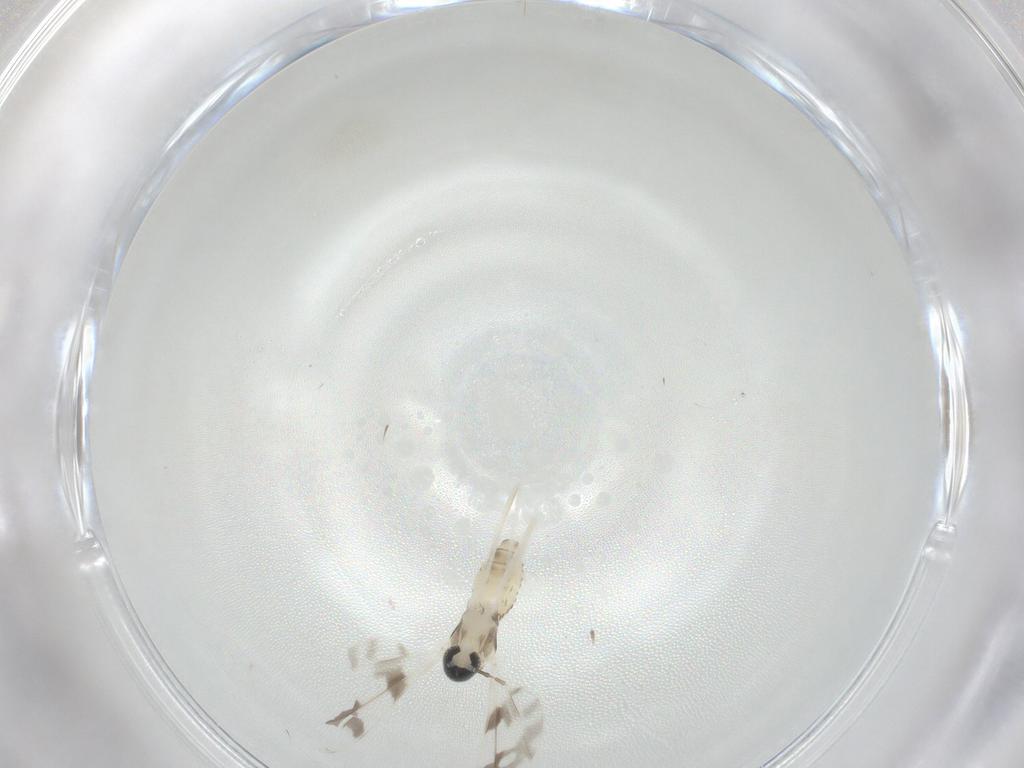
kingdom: Animalia
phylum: Arthropoda
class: Insecta
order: Diptera
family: Cecidomyiidae
